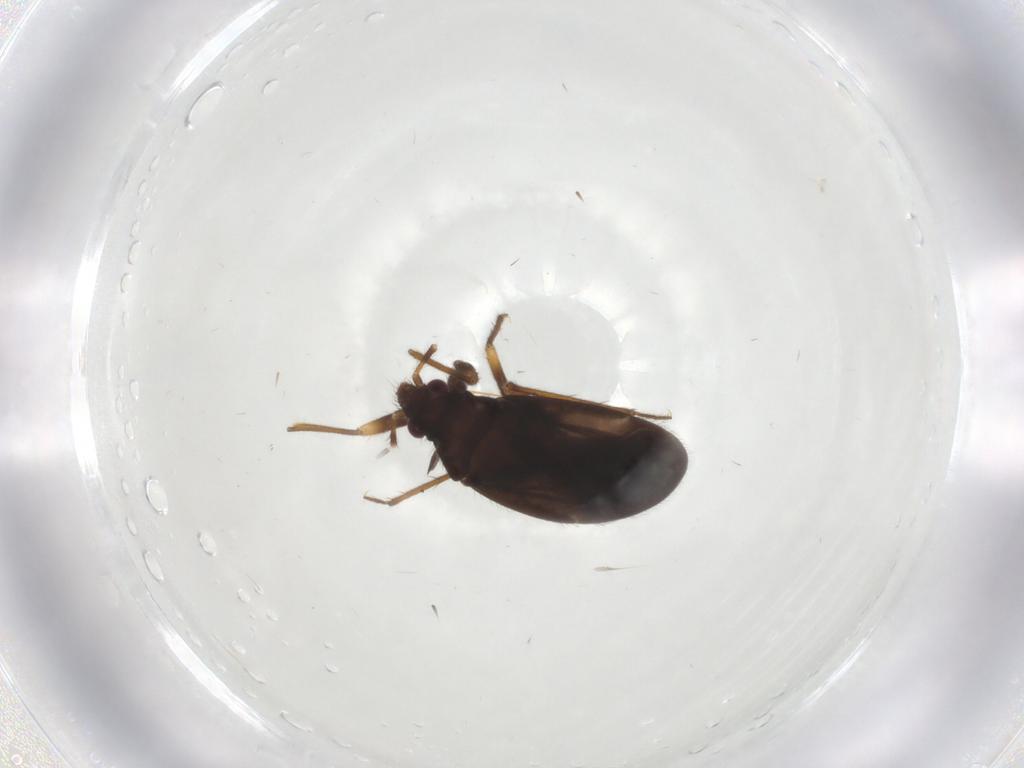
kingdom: Animalia
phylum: Arthropoda
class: Insecta
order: Hemiptera
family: Ceratocombidae
